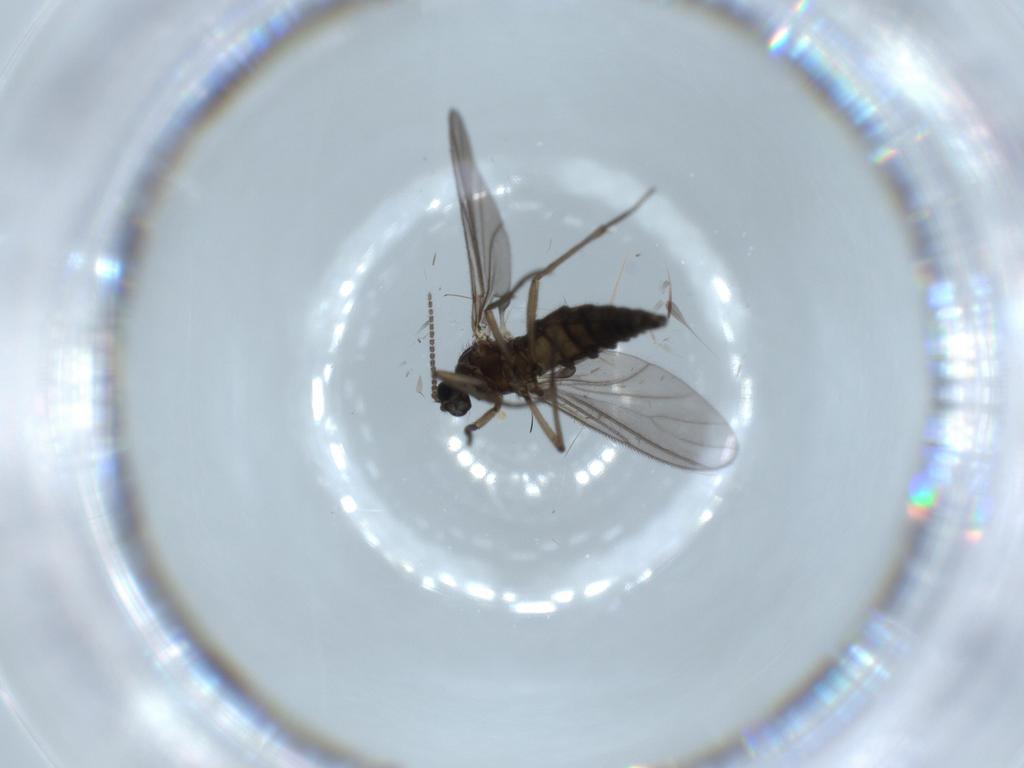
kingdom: Animalia
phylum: Arthropoda
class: Insecta
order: Diptera
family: Sciaridae
